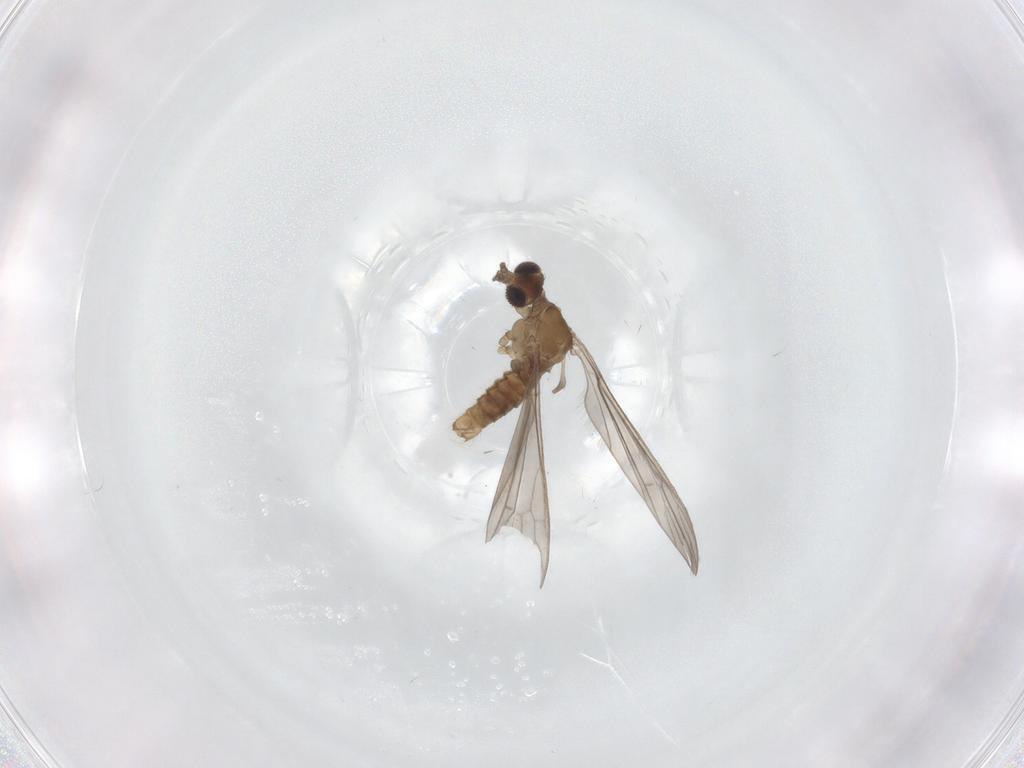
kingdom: Animalia
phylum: Arthropoda
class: Insecta
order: Diptera
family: Limoniidae
